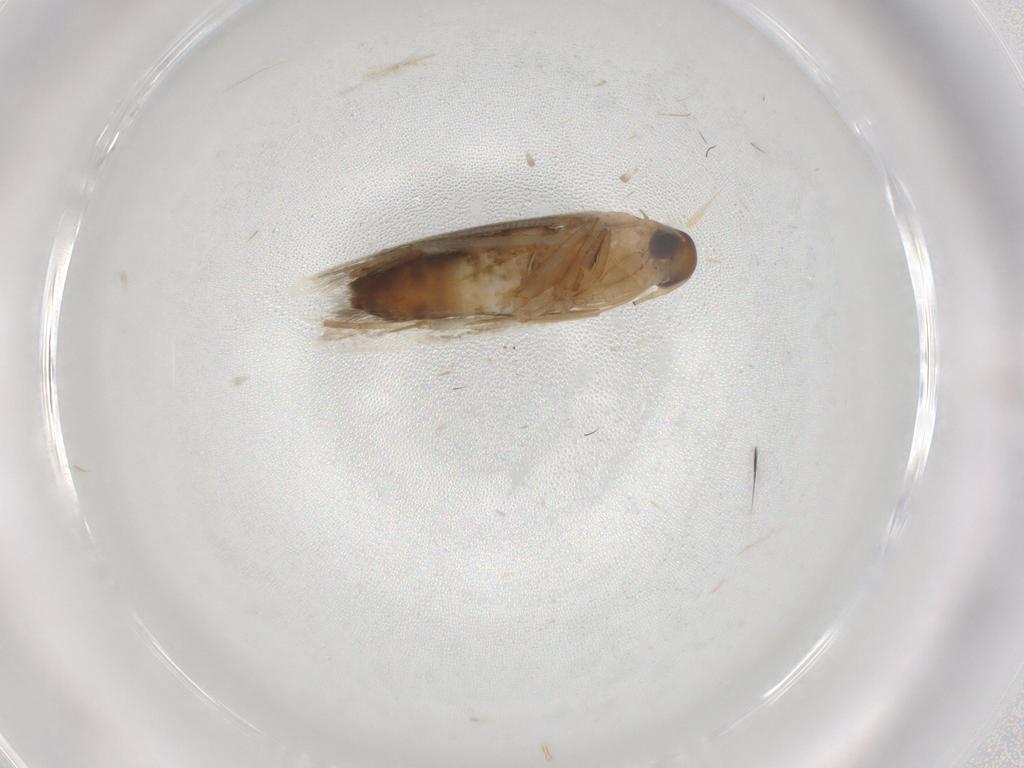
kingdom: Animalia
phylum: Arthropoda
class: Insecta
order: Lepidoptera
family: Cosmopterigidae
